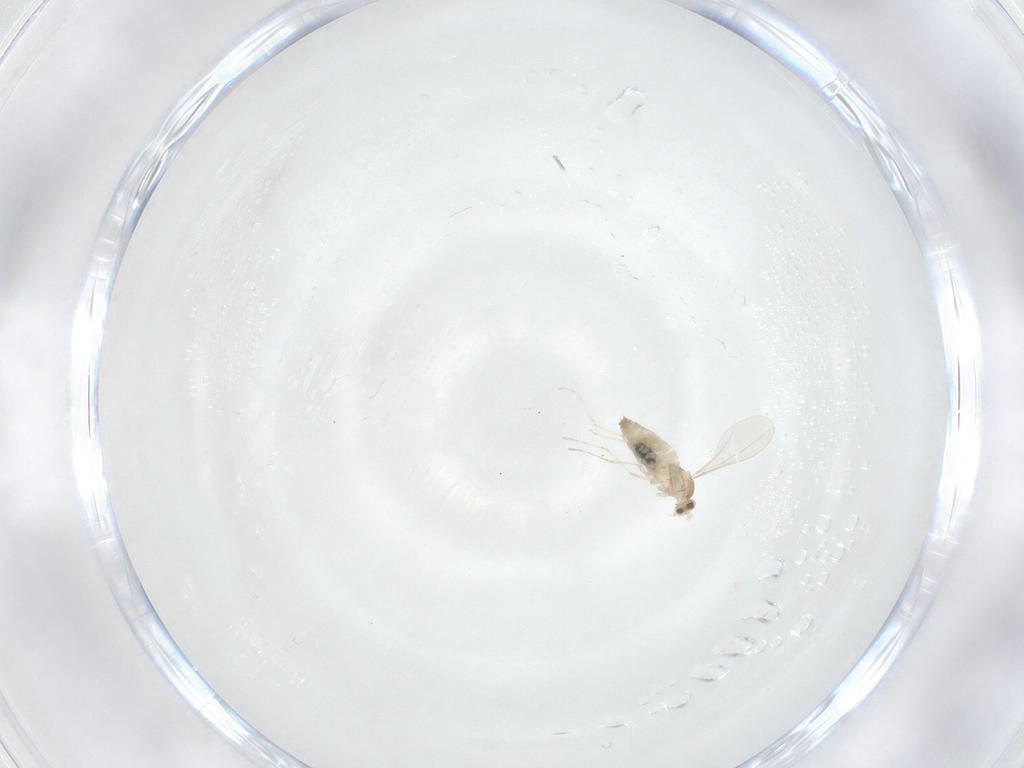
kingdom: Animalia
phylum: Arthropoda
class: Insecta
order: Diptera
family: Cecidomyiidae
